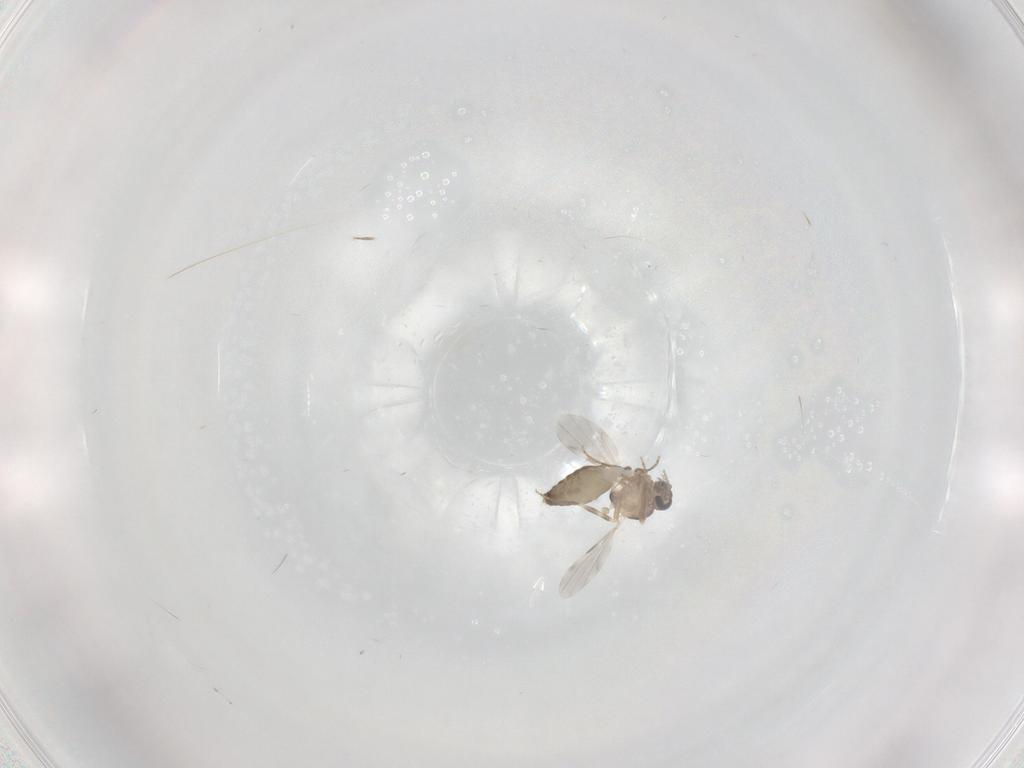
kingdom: Animalia
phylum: Arthropoda
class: Insecta
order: Diptera
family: Ceratopogonidae
